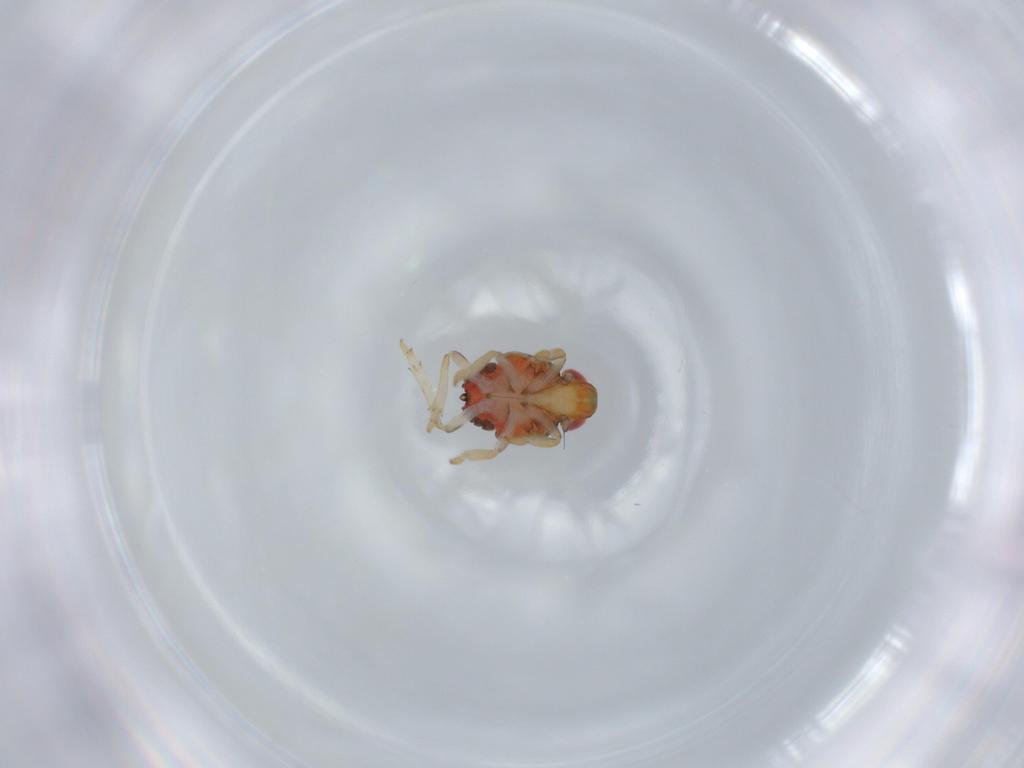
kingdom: Animalia
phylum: Arthropoda
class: Insecta
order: Hemiptera
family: Issidae
